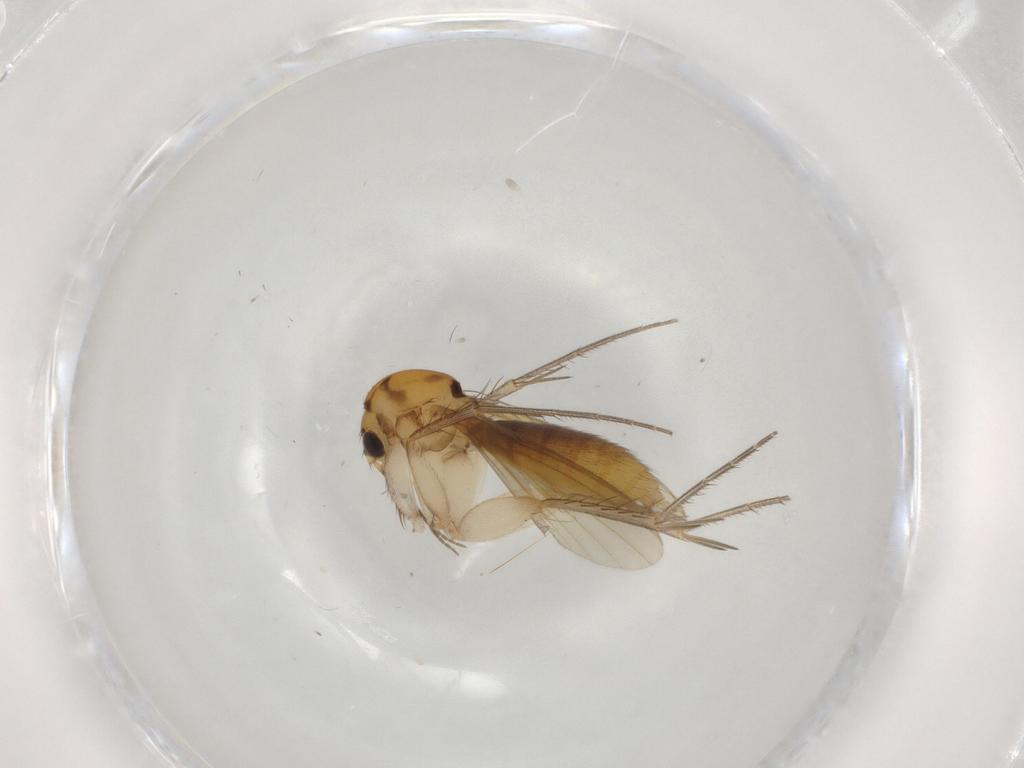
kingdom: Animalia
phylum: Arthropoda
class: Insecta
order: Diptera
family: Mycetophilidae
